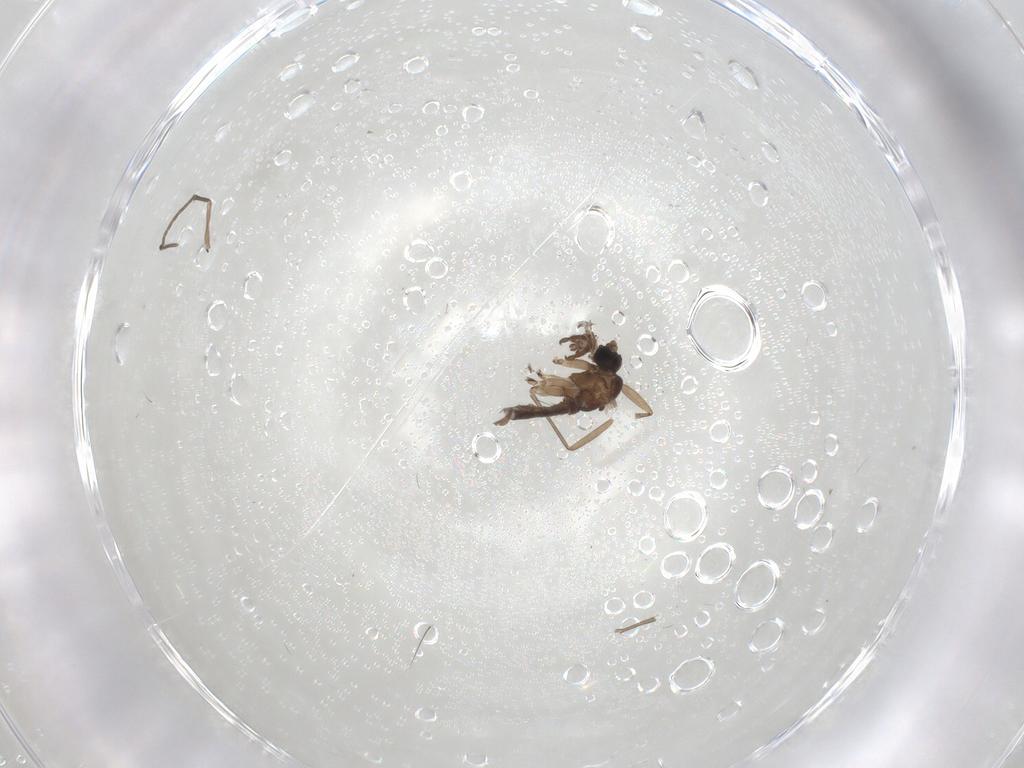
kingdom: Animalia
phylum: Arthropoda
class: Insecta
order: Diptera
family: Sciaridae
